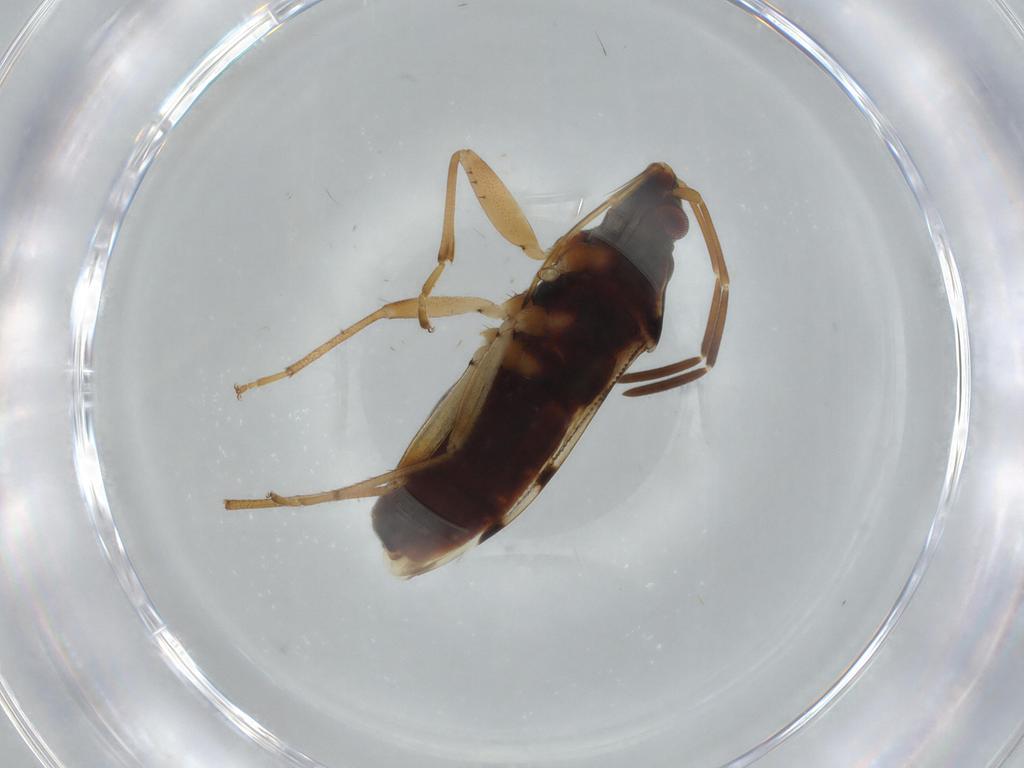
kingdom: Animalia
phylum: Arthropoda
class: Insecta
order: Hemiptera
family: Rhyparochromidae
